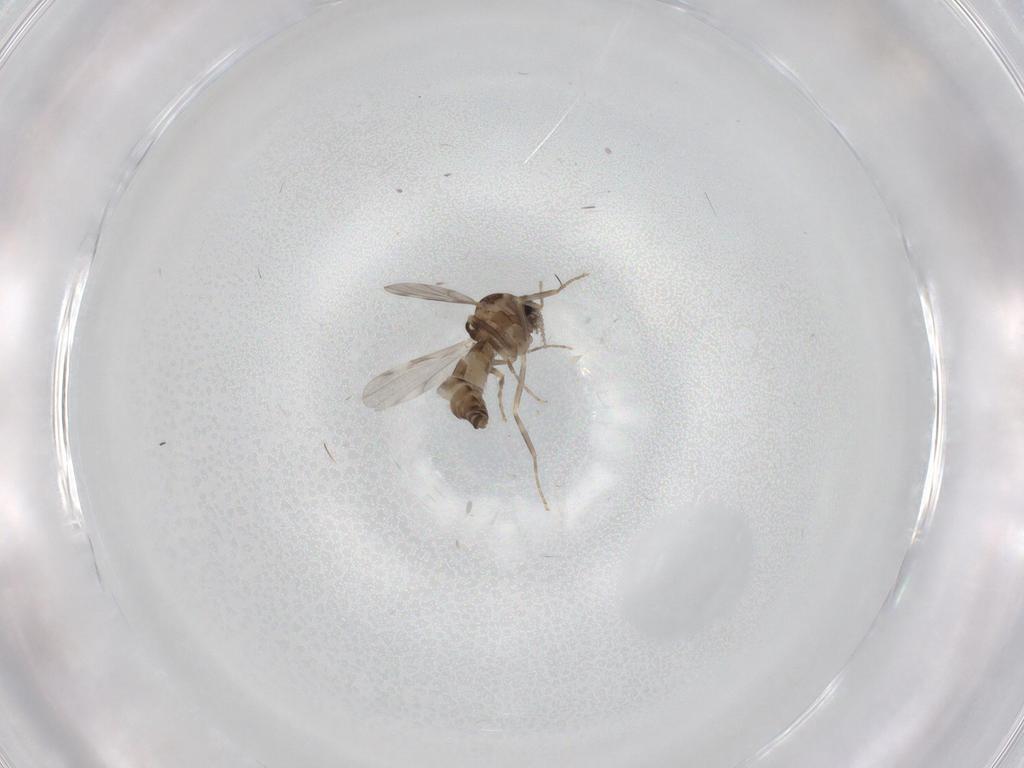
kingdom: Animalia
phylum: Arthropoda
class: Insecta
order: Diptera
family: Ceratopogonidae
